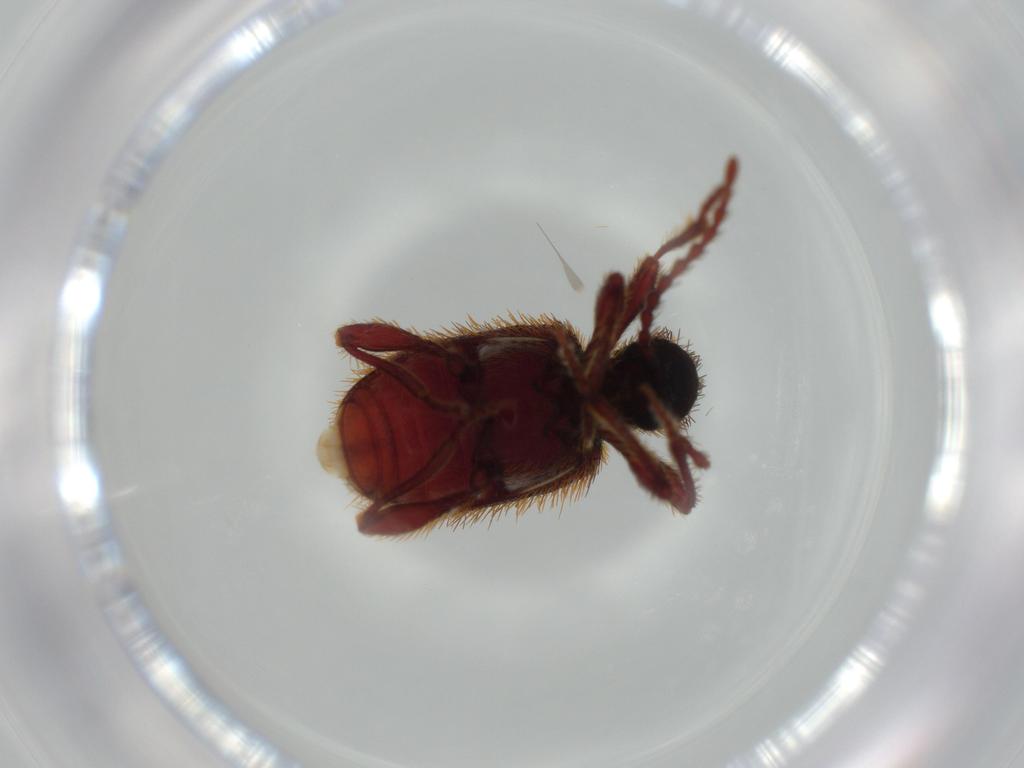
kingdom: Animalia
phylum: Arthropoda
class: Insecta
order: Coleoptera
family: Ptinidae
